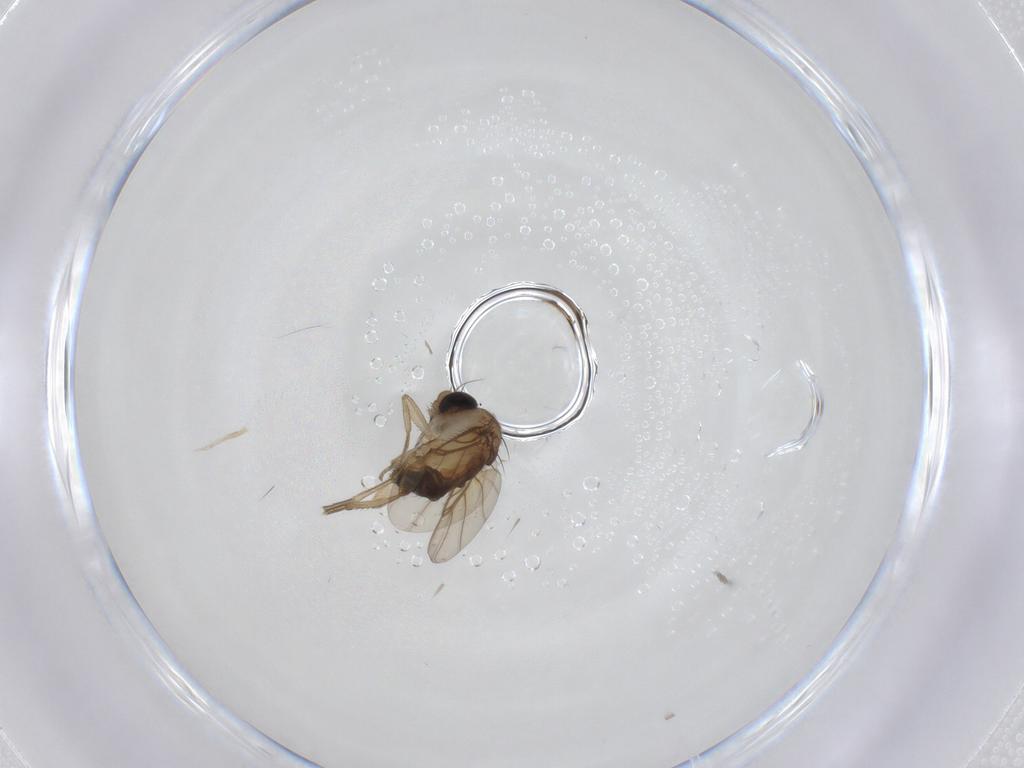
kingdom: Animalia
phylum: Arthropoda
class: Insecta
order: Diptera
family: Phoridae
